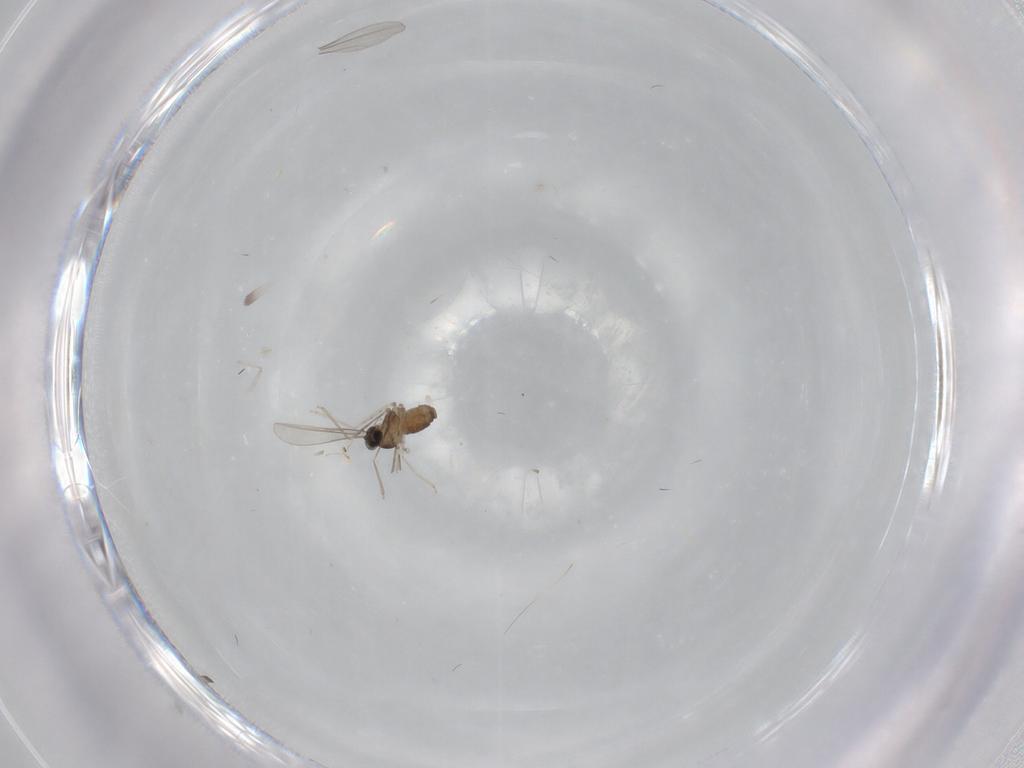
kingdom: Animalia
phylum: Arthropoda
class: Insecta
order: Diptera
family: Cecidomyiidae
